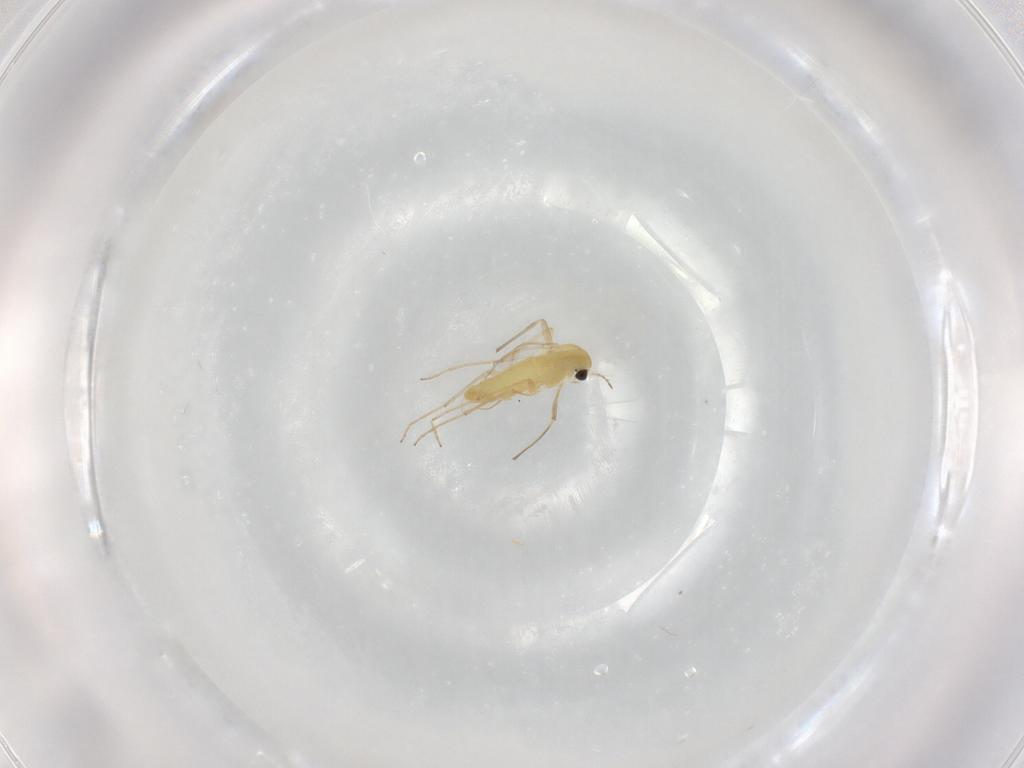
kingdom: Animalia
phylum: Arthropoda
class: Insecta
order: Diptera
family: Chironomidae
